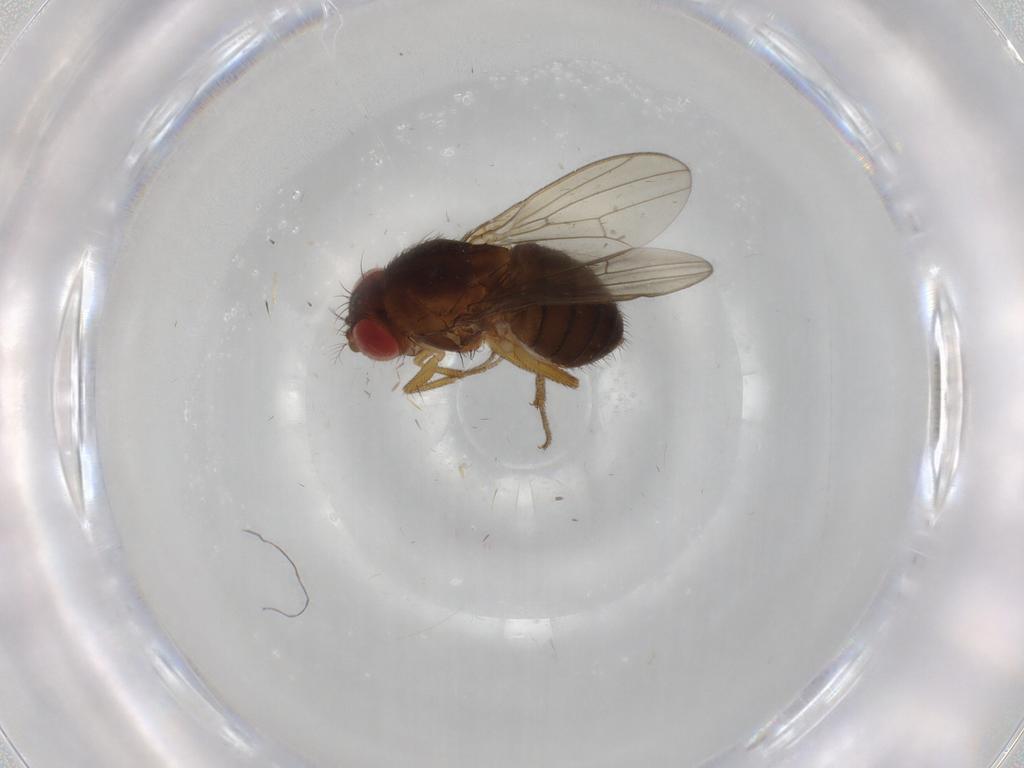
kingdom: Animalia
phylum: Arthropoda
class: Insecta
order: Diptera
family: Drosophilidae
